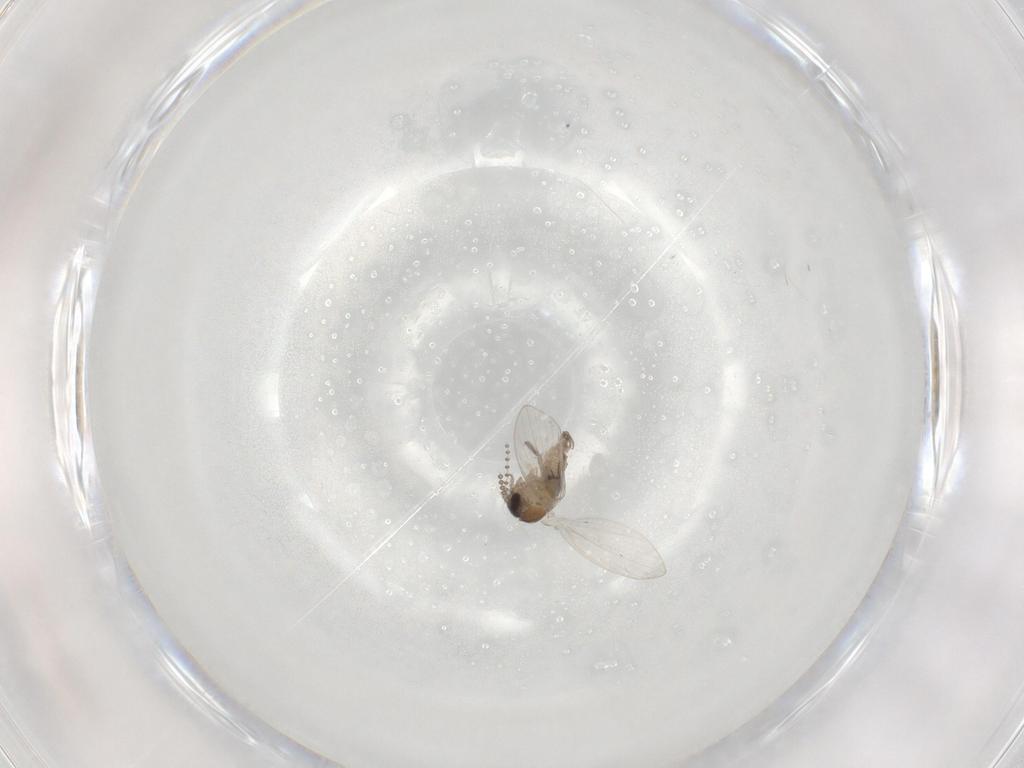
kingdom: Animalia
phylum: Arthropoda
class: Insecta
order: Diptera
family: Psychodidae
